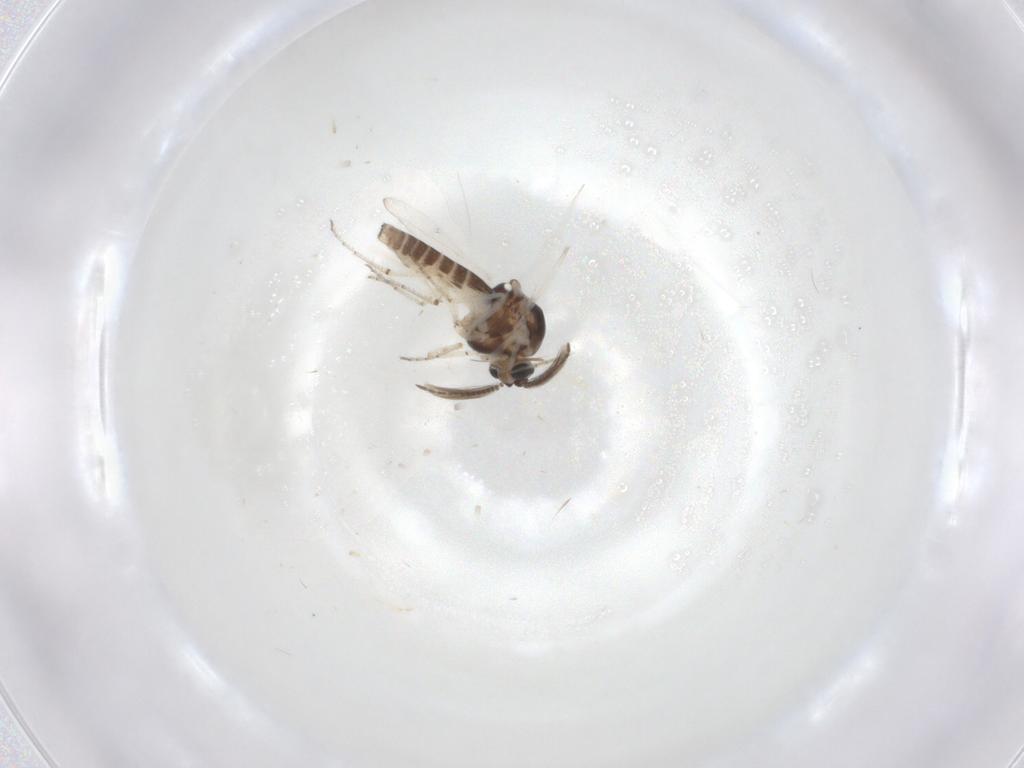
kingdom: Animalia
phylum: Arthropoda
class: Insecta
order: Diptera
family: Ceratopogonidae
